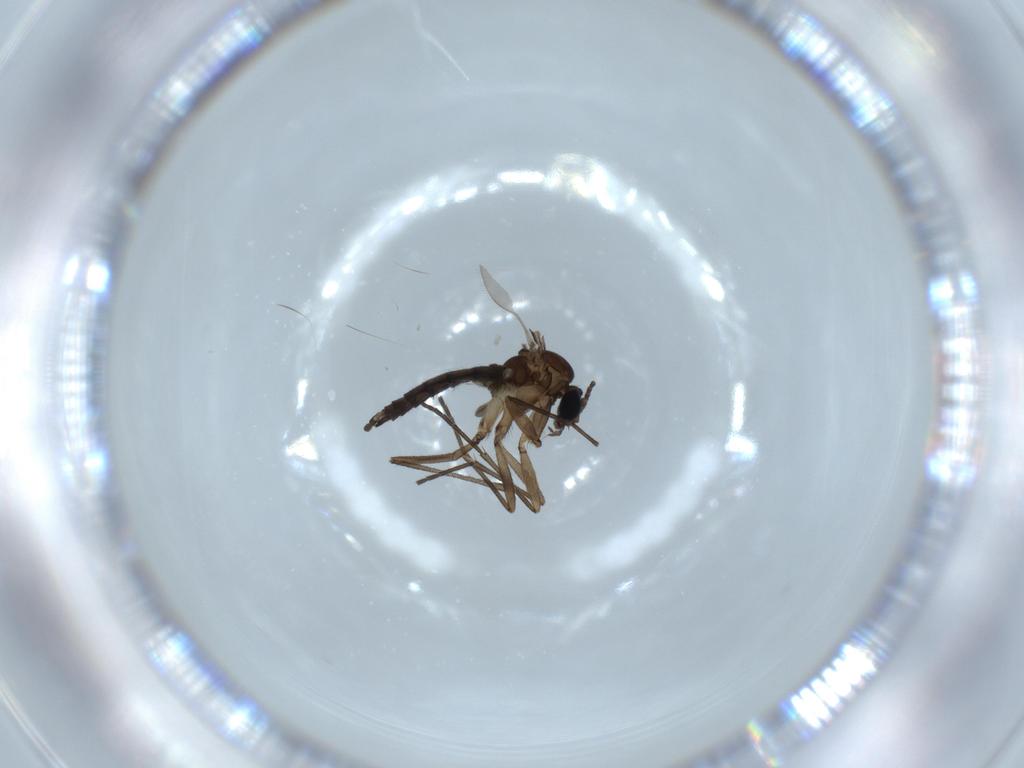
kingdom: Animalia
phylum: Arthropoda
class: Insecta
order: Diptera
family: Sciaridae
